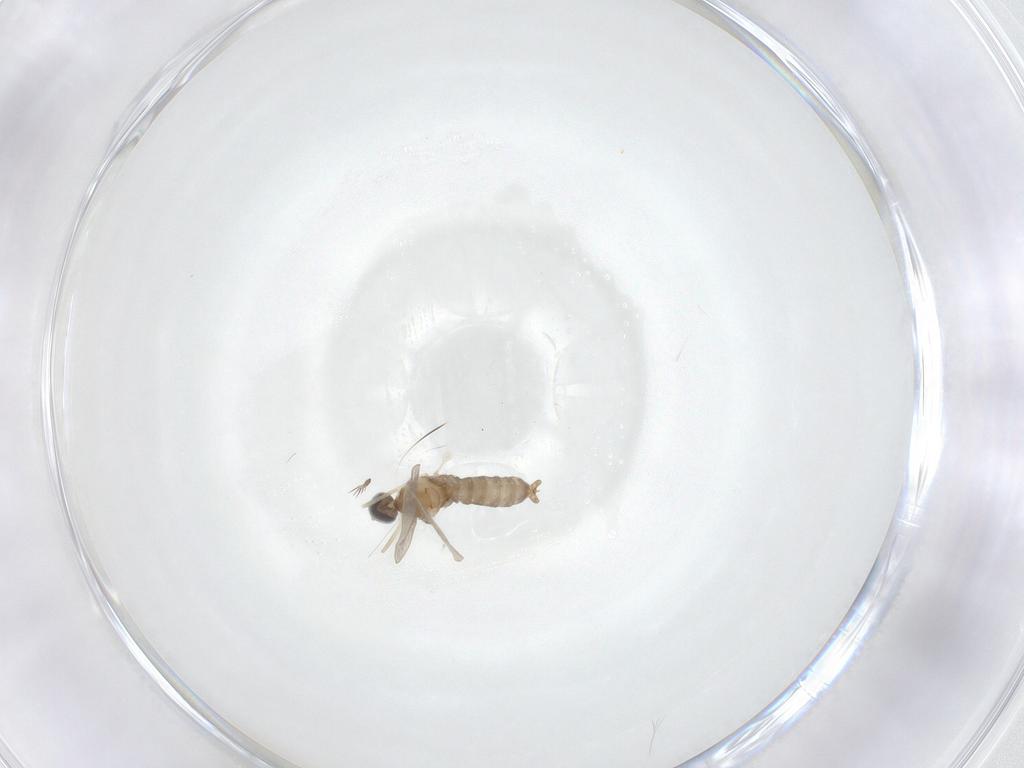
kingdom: Animalia
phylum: Arthropoda
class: Insecta
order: Diptera
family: Cecidomyiidae
